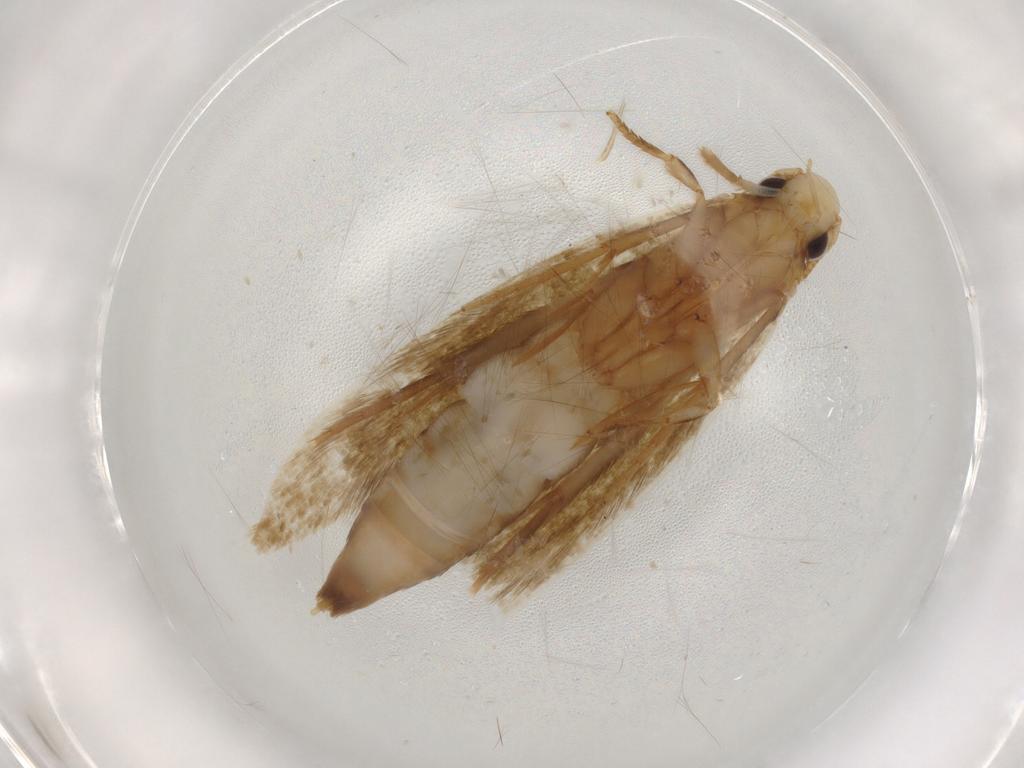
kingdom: Animalia
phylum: Arthropoda
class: Insecta
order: Lepidoptera
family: Tineidae
